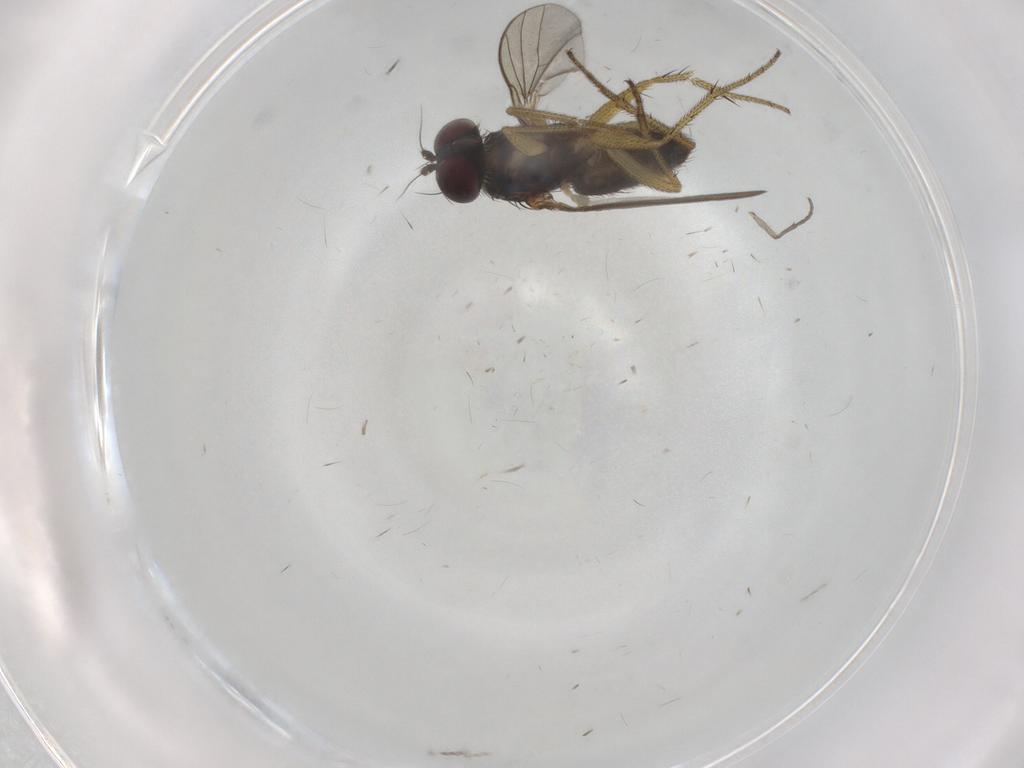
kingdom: Animalia
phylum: Arthropoda
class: Insecta
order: Diptera
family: Dolichopodidae
